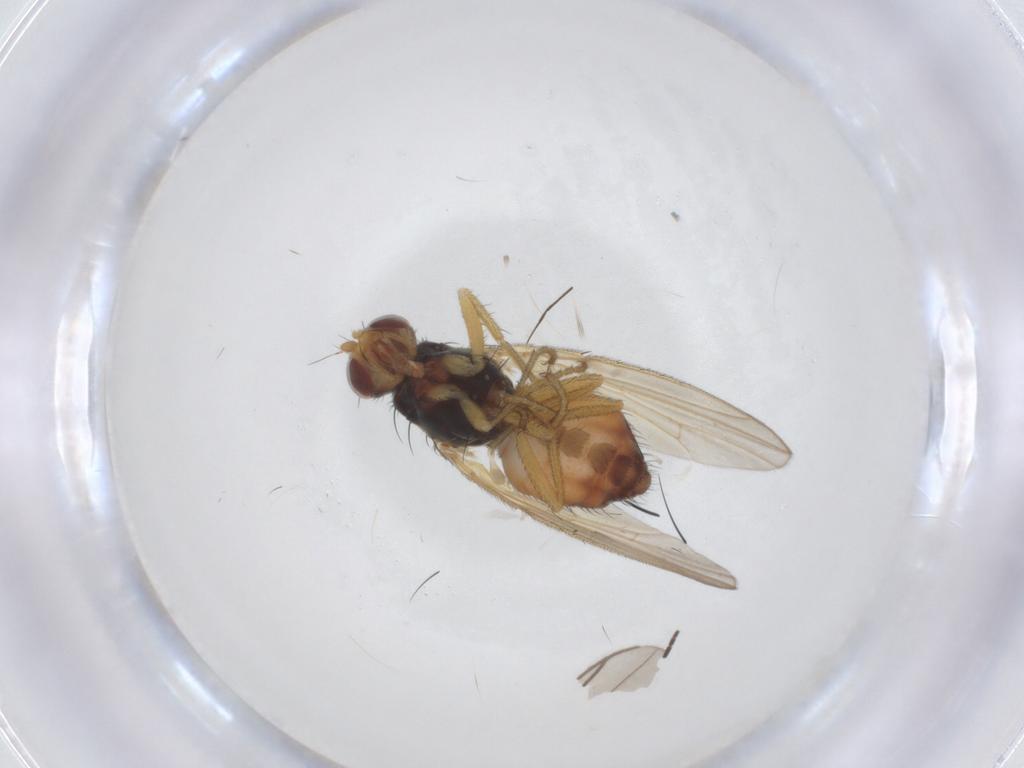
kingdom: Animalia
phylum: Arthropoda
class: Insecta
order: Diptera
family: Heleomyzidae
